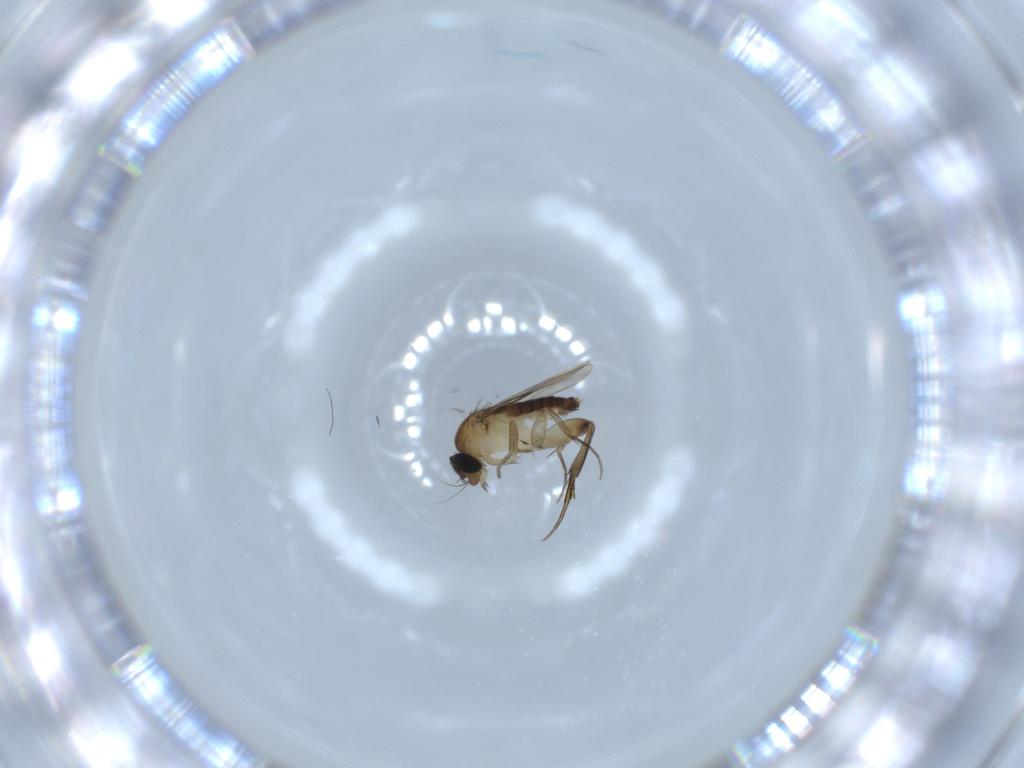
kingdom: Animalia
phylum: Arthropoda
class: Insecta
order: Diptera
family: Phoridae
